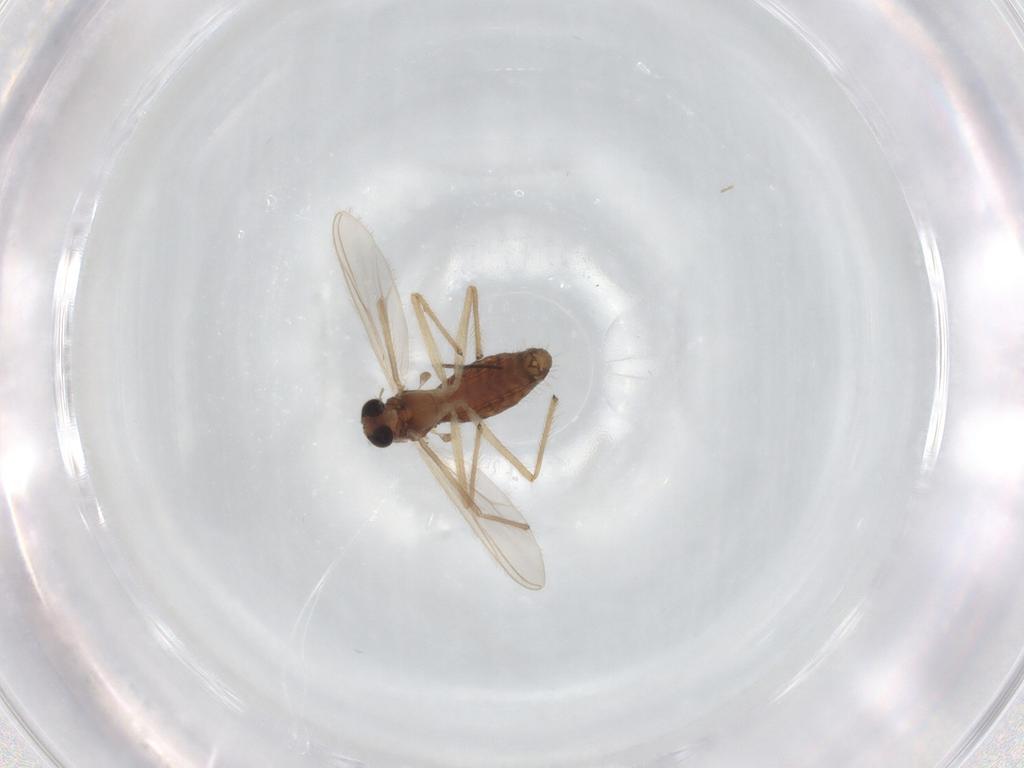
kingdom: Animalia
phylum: Arthropoda
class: Insecta
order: Diptera
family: Chironomidae
